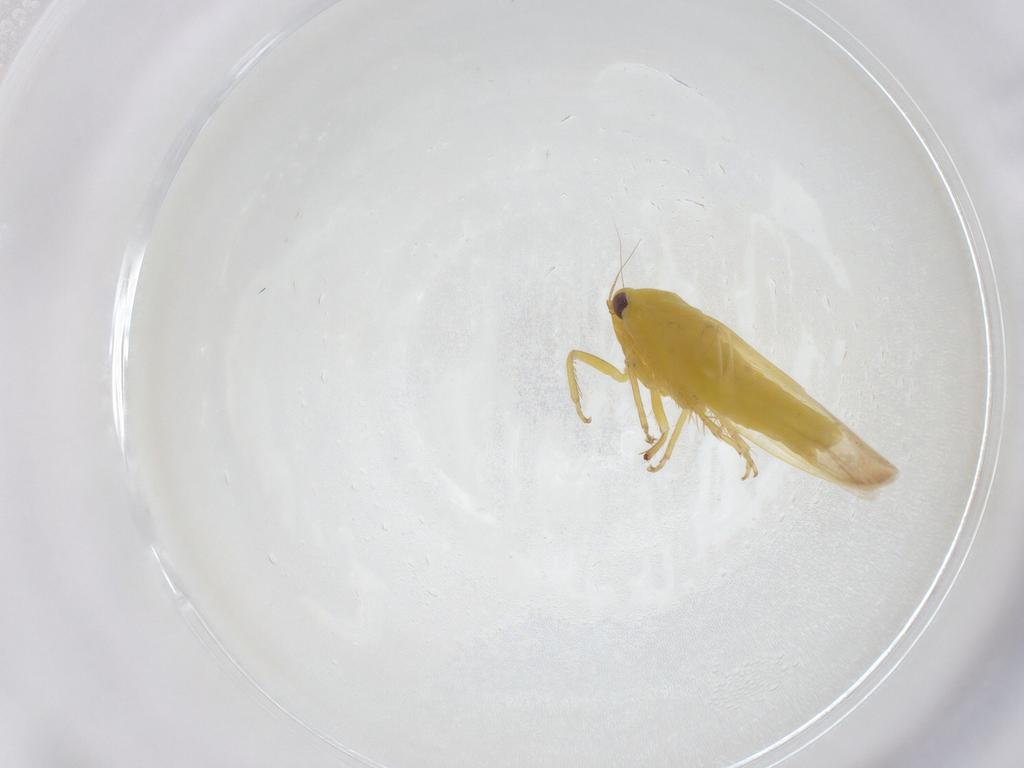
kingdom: Animalia
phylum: Arthropoda
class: Insecta
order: Hemiptera
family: Cicadellidae
